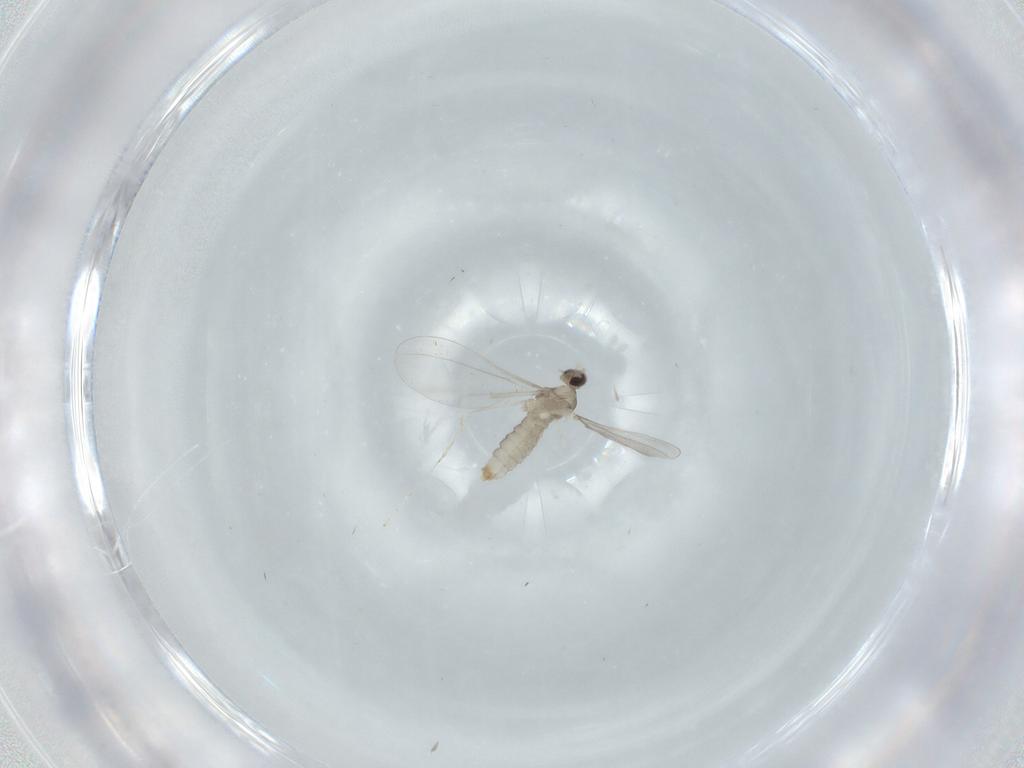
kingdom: Animalia
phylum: Arthropoda
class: Insecta
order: Diptera
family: Cecidomyiidae
